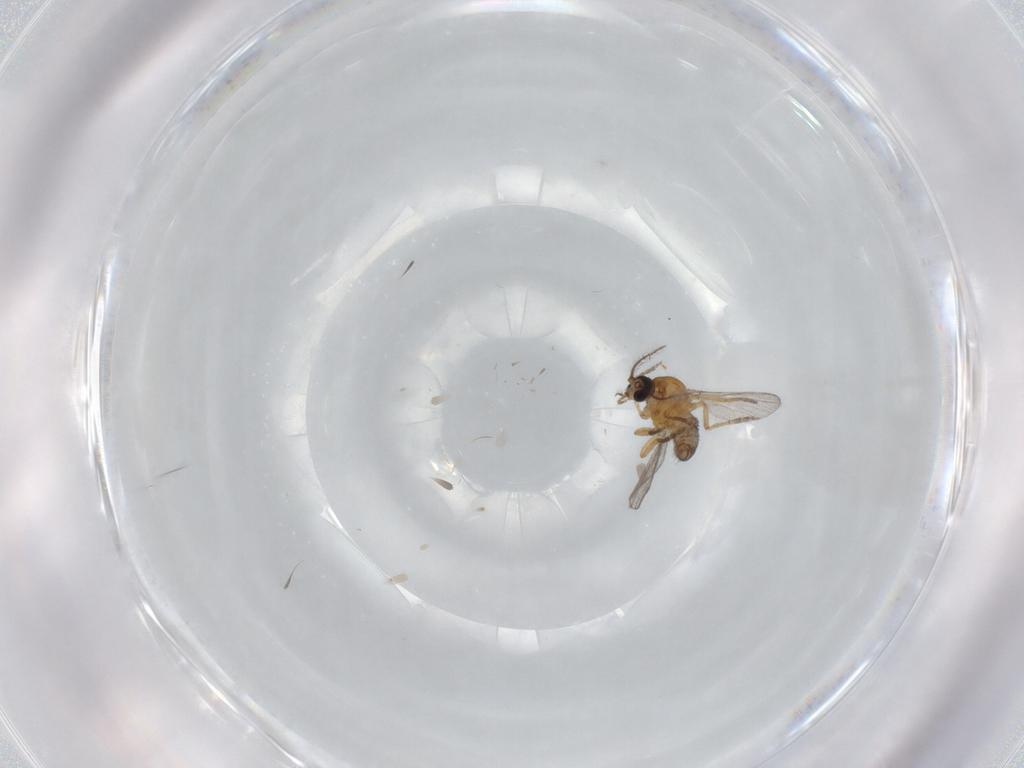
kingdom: Animalia
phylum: Arthropoda
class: Insecta
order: Diptera
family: Ceratopogonidae
